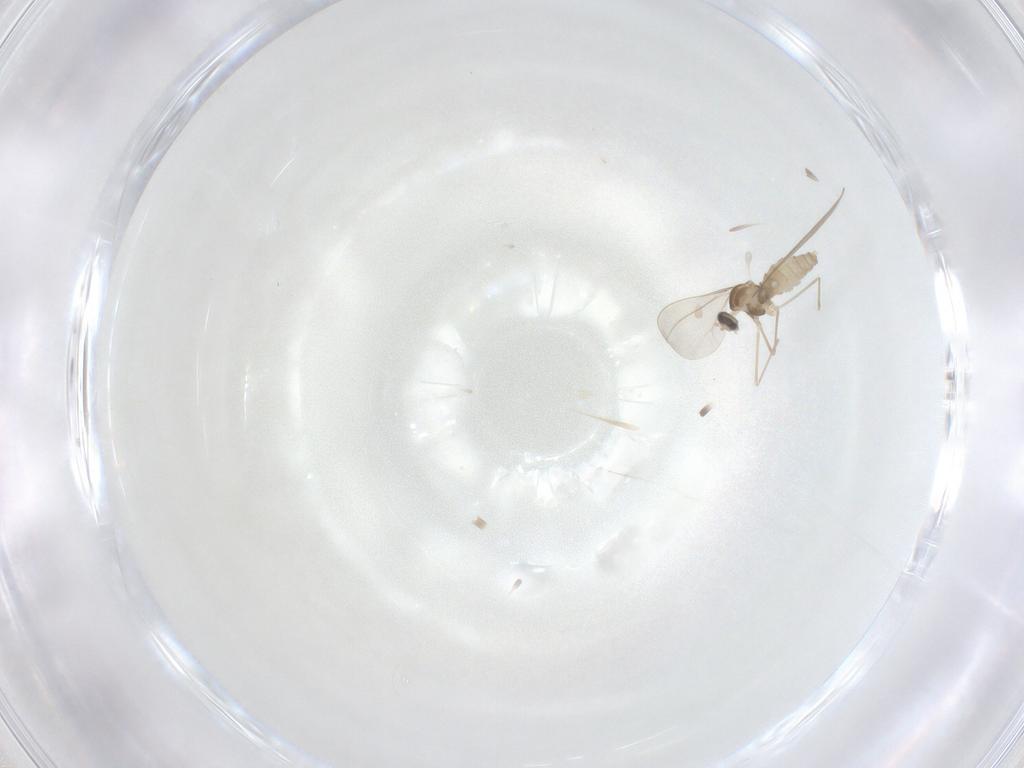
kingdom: Animalia
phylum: Arthropoda
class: Insecta
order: Diptera
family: Cecidomyiidae
